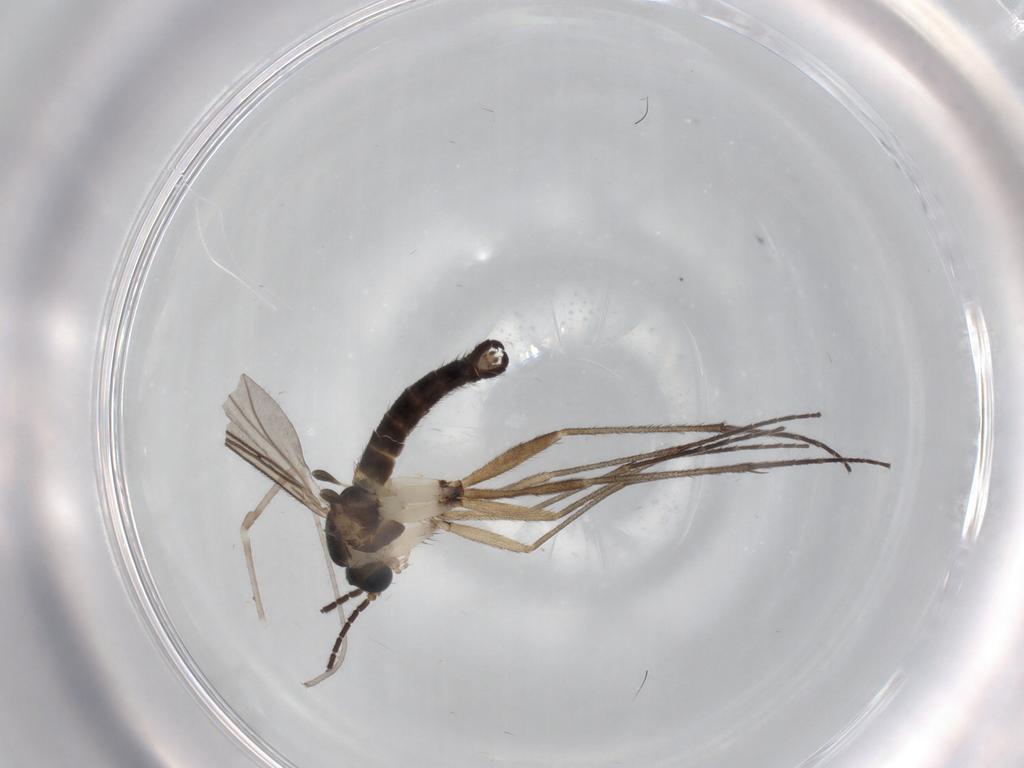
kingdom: Animalia
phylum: Arthropoda
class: Insecta
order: Diptera
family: Sciaridae
